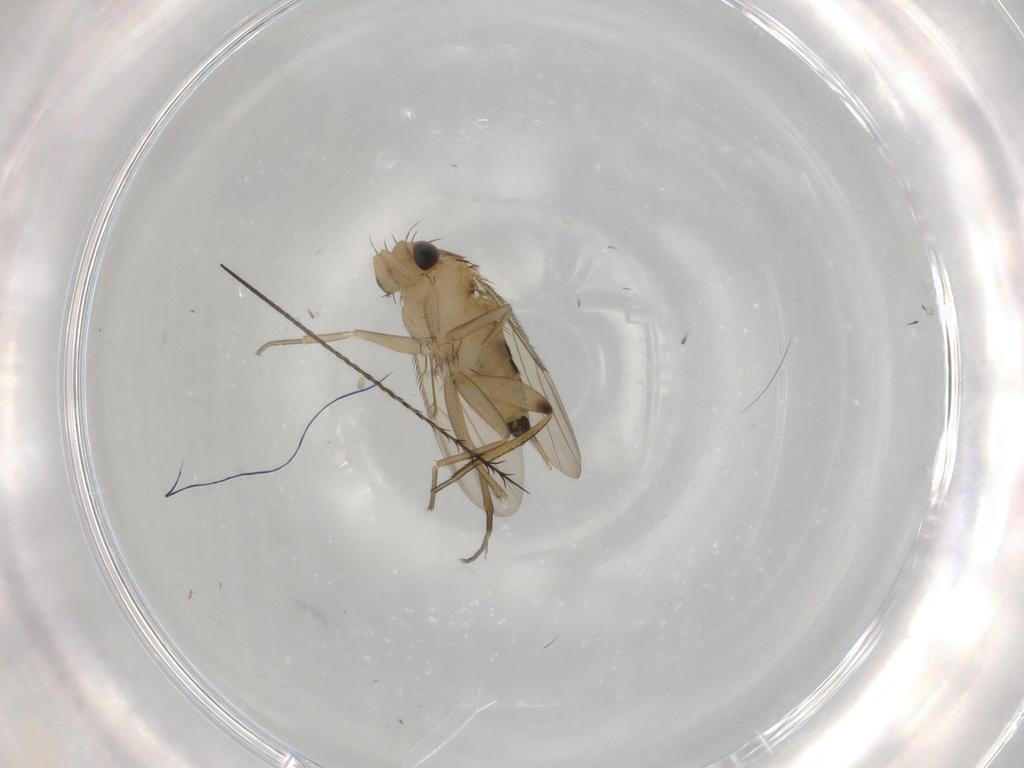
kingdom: Animalia
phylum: Arthropoda
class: Insecta
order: Diptera
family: Phoridae
